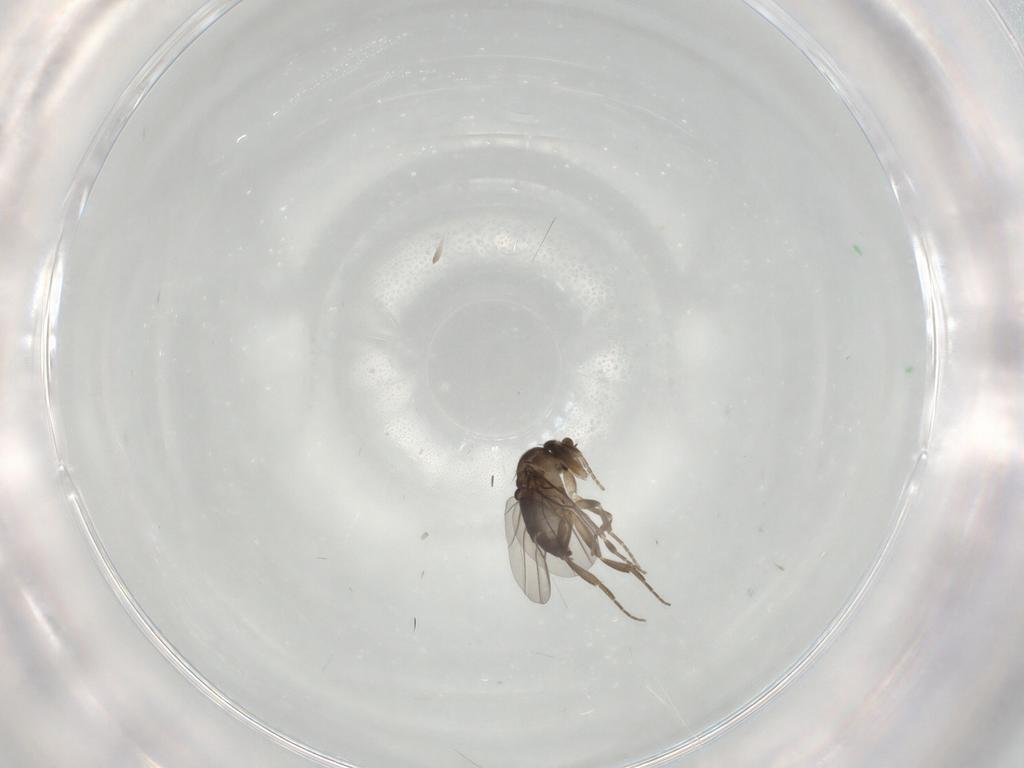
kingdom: Animalia
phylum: Arthropoda
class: Insecta
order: Diptera
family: Phoridae
